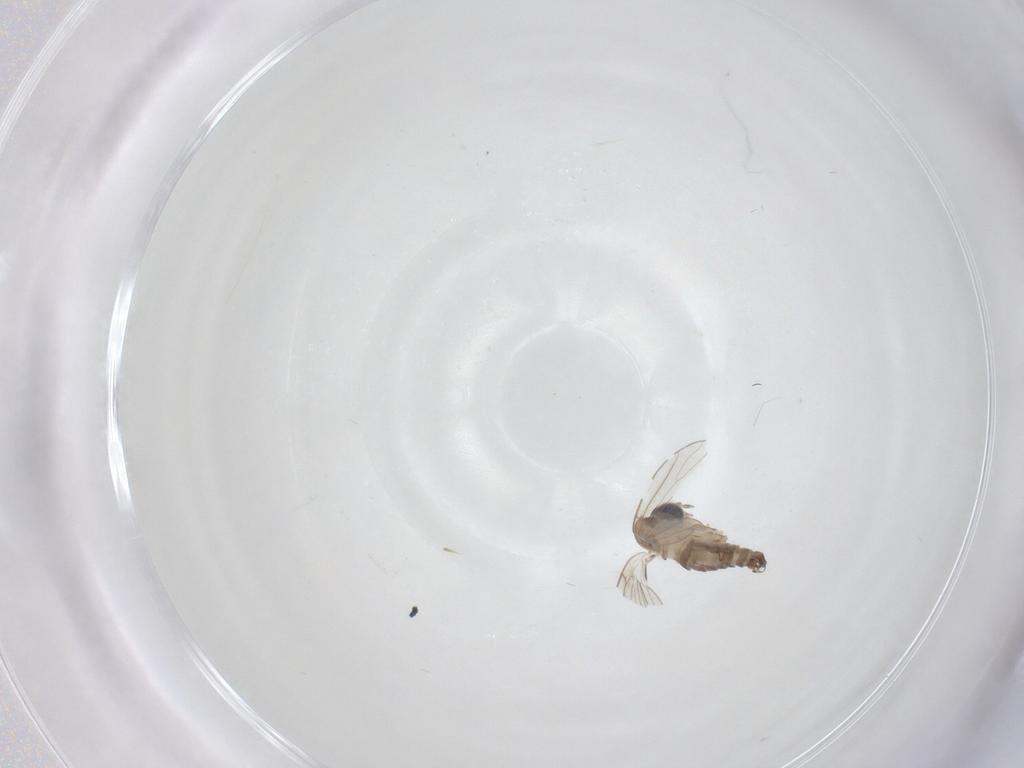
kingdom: Animalia
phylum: Arthropoda
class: Insecta
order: Diptera
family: Psychodidae
